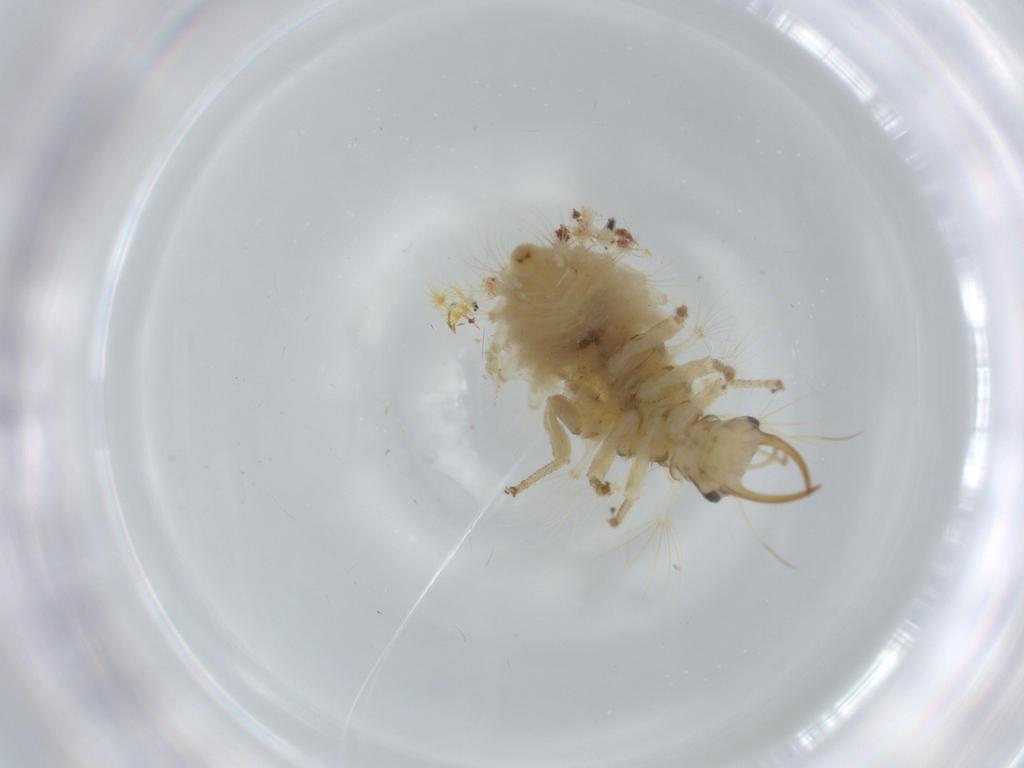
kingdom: Animalia
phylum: Arthropoda
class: Insecta
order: Neuroptera
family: Chrysopidae
